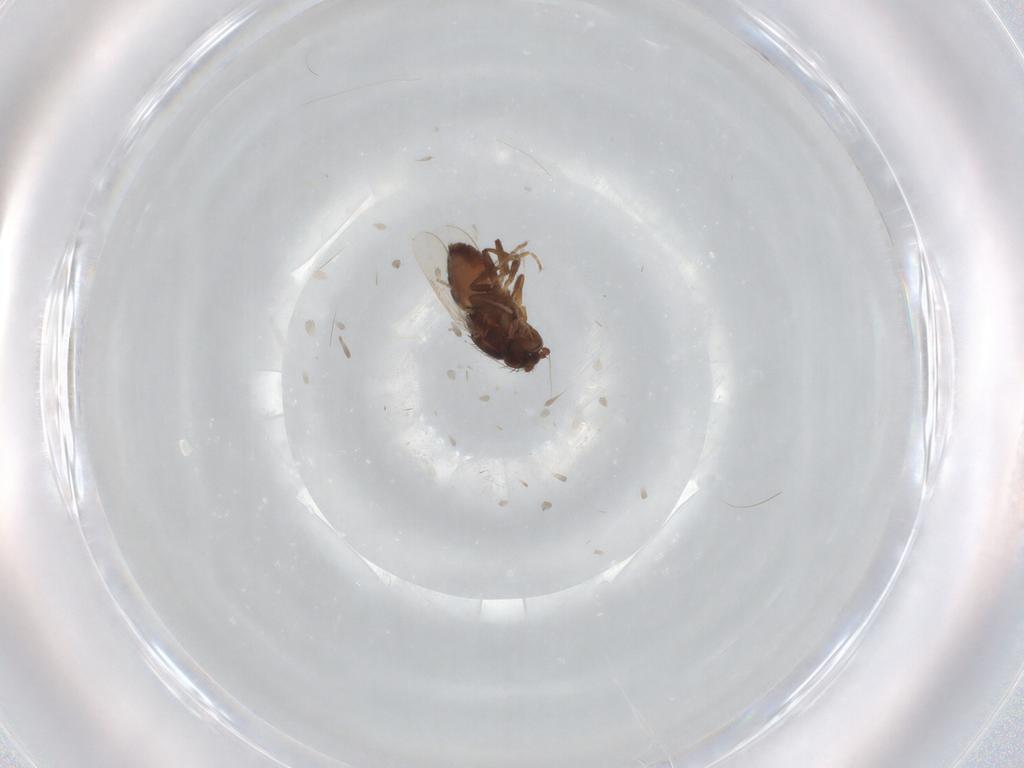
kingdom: Animalia
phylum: Arthropoda
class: Insecta
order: Diptera
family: Sphaeroceridae
